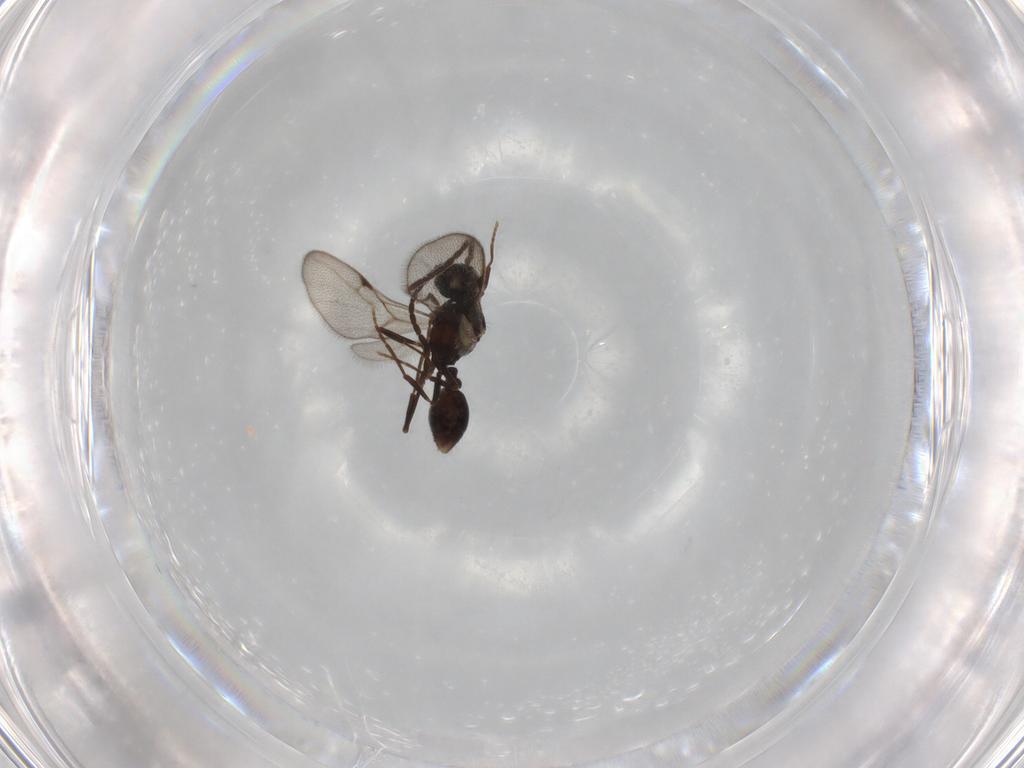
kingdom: Animalia
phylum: Arthropoda
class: Insecta
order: Hymenoptera
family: Formicidae
